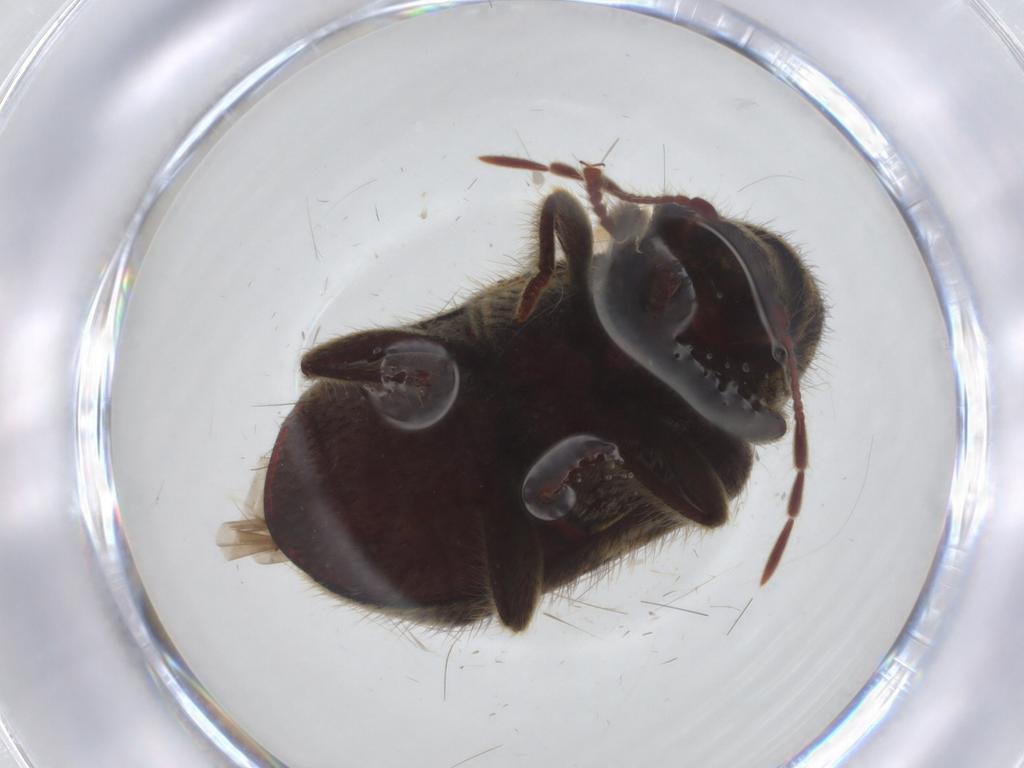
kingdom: Animalia
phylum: Arthropoda
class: Insecta
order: Coleoptera
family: Ptinidae
